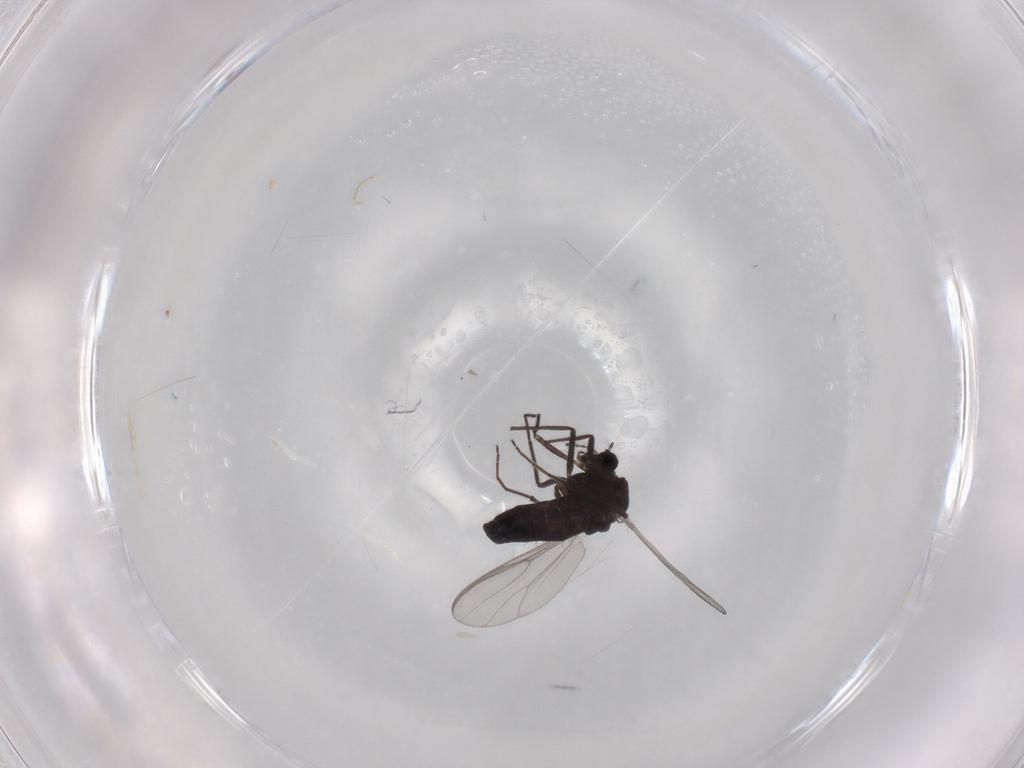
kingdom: Animalia
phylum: Arthropoda
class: Insecta
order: Diptera
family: Chironomidae
